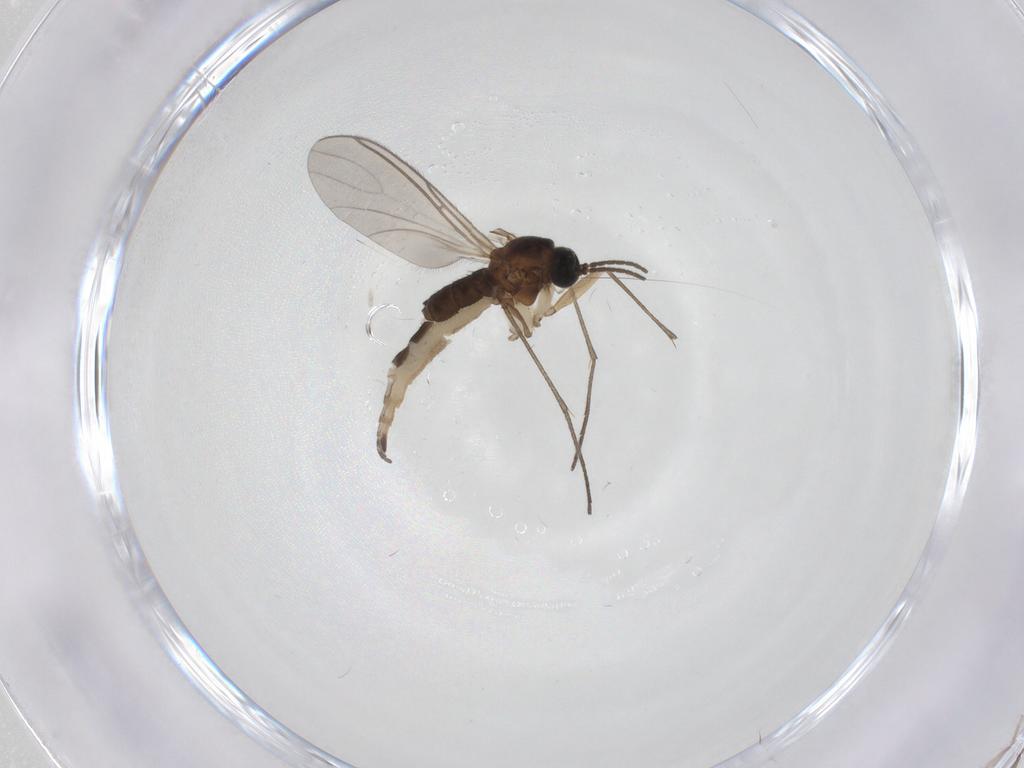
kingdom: Animalia
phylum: Arthropoda
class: Insecta
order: Diptera
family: Sciaridae
